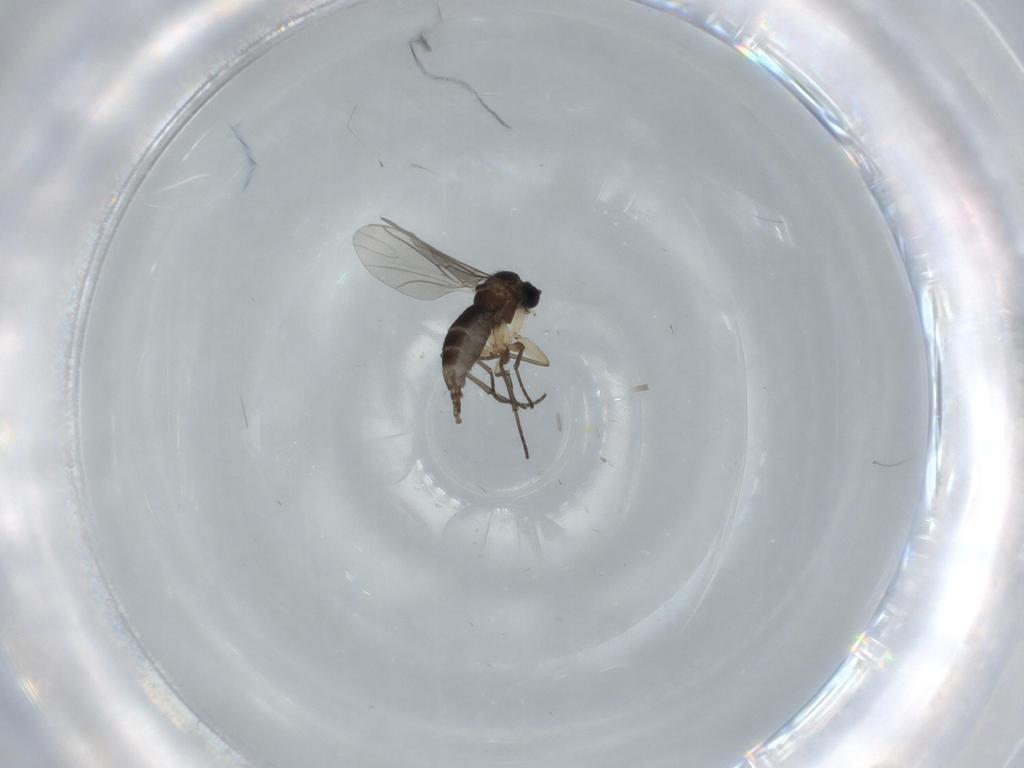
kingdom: Animalia
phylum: Arthropoda
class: Insecta
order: Diptera
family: Sciaridae
